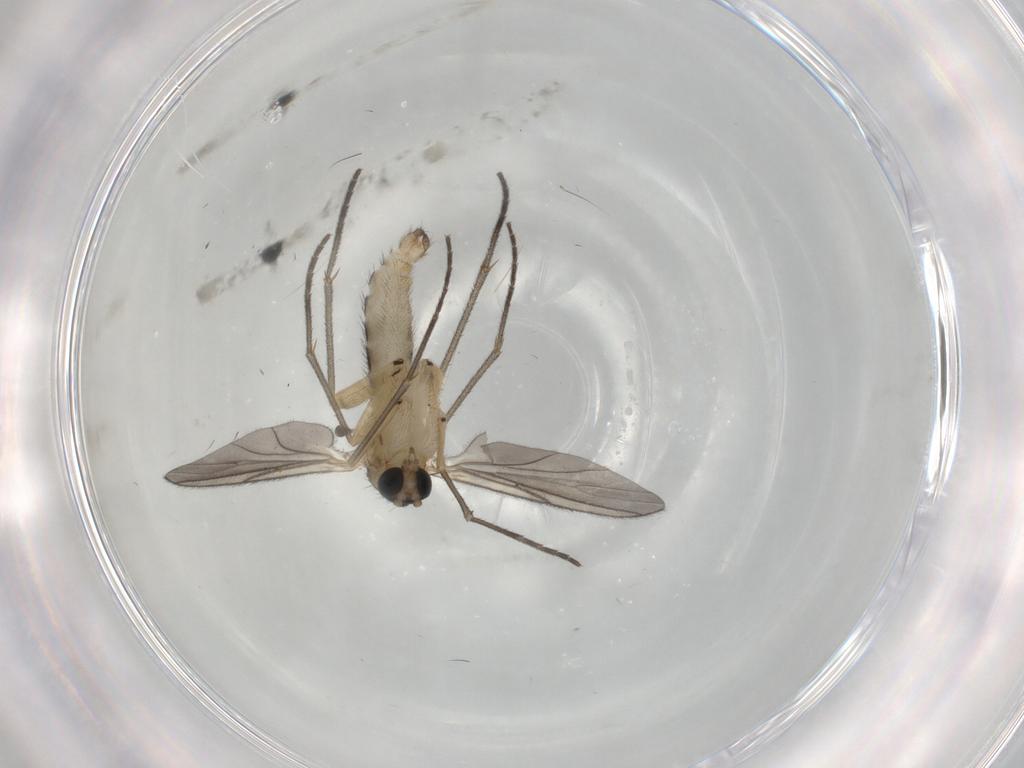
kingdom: Animalia
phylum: Arthropoda
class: Insecta
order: Diptera
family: Sciaridae
